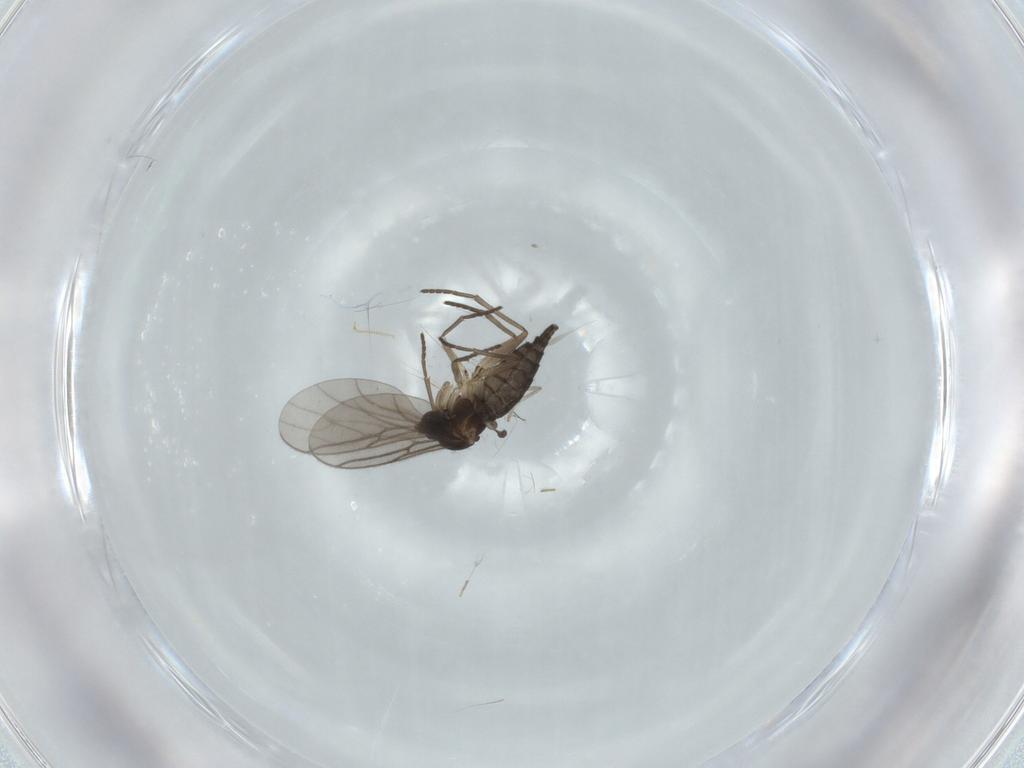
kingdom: Animalia
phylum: Arthropoda
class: Insecta
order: Diptera
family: Sciaridae
